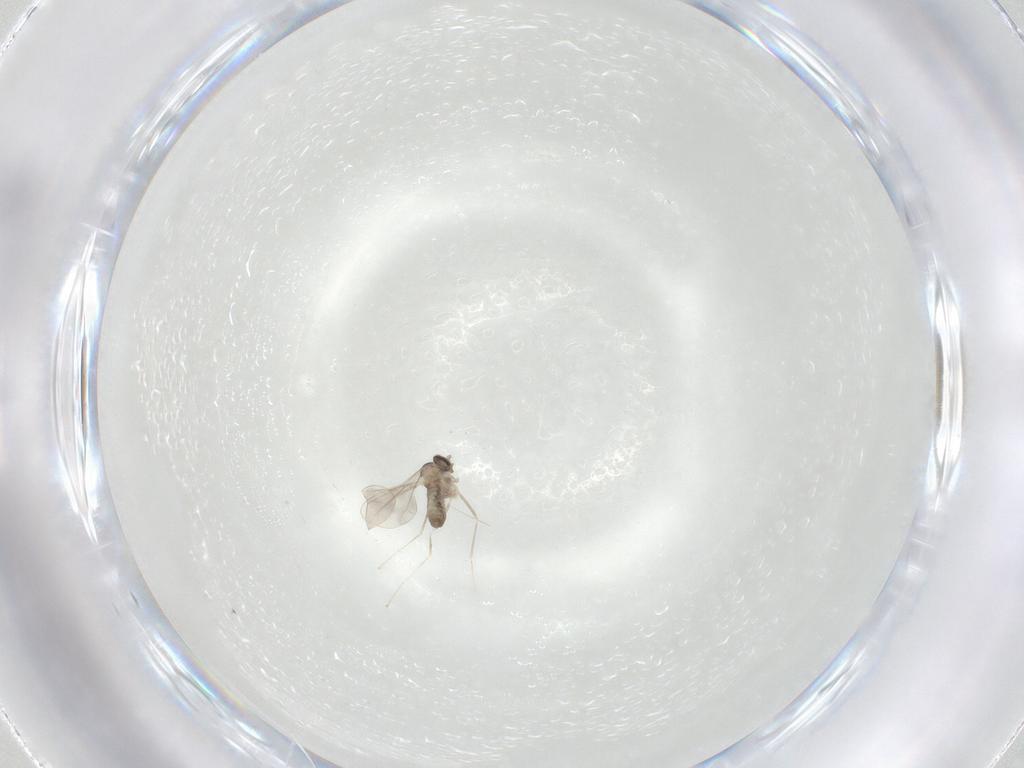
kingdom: Animalia
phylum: Arthropoda
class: Insecta
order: Diptera
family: Cecidomyiidae
